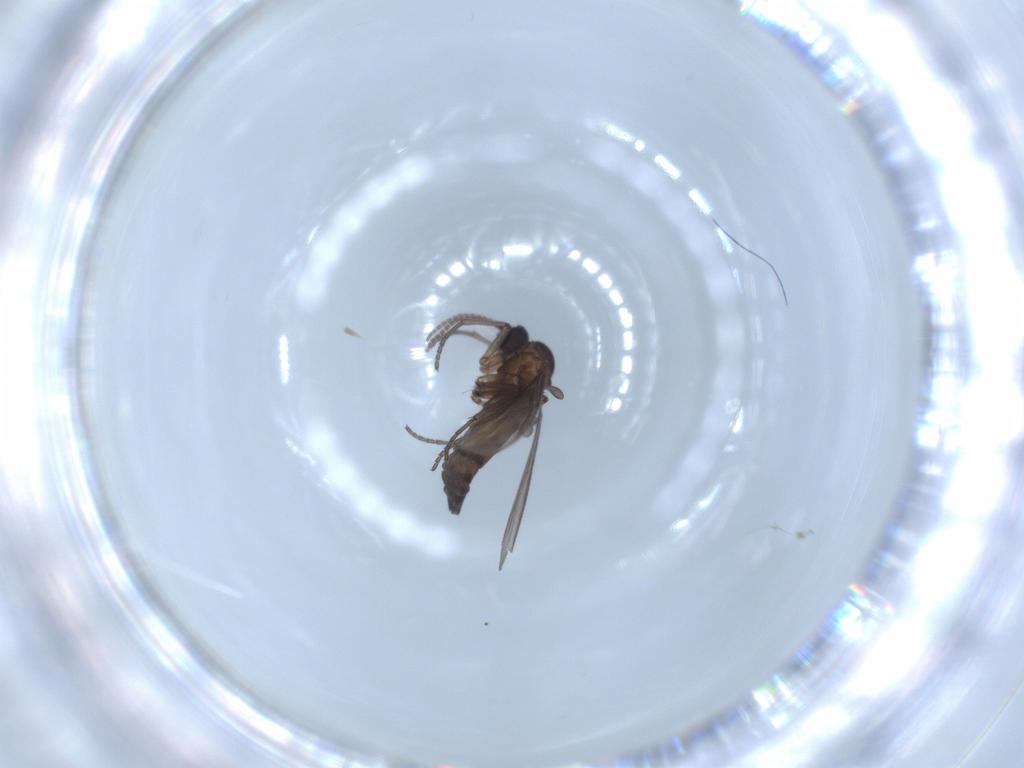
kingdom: Animalia
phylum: Arthropoda
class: Insecta
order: Diptera
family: Sciaridae
